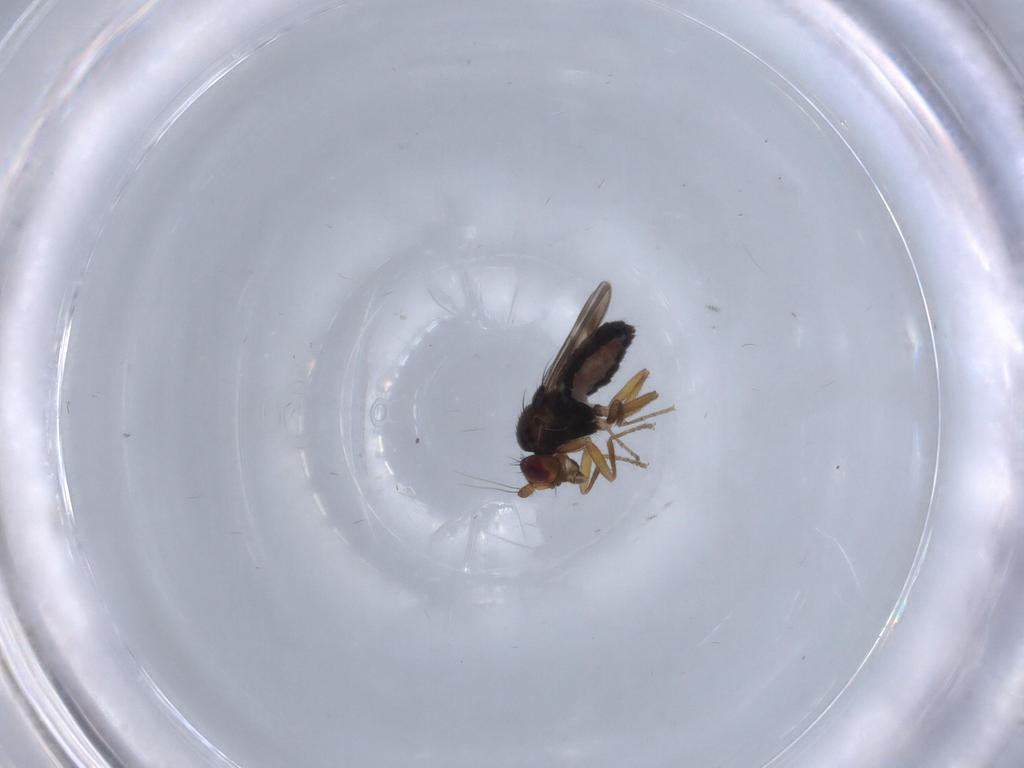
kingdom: Animalia
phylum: Arthropoda
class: Insecta
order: Diptera
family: Sphaeroceridae
